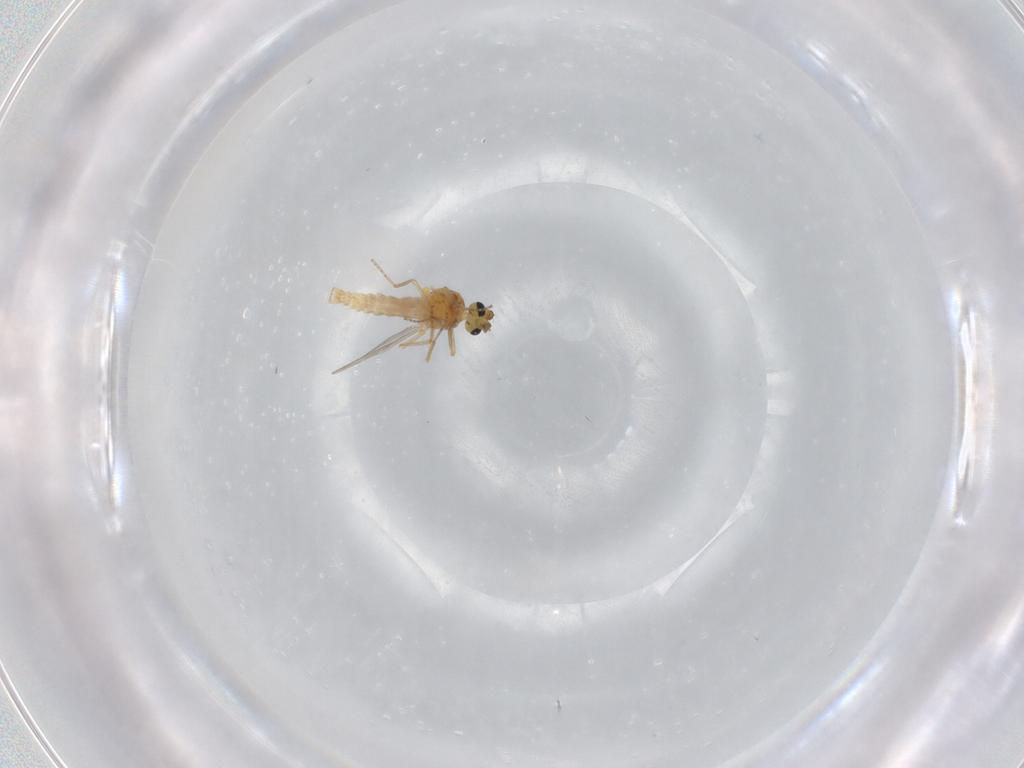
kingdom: Animalia
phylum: Arthropoda
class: Insecta
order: Diptera
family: Ceratopogonidae
